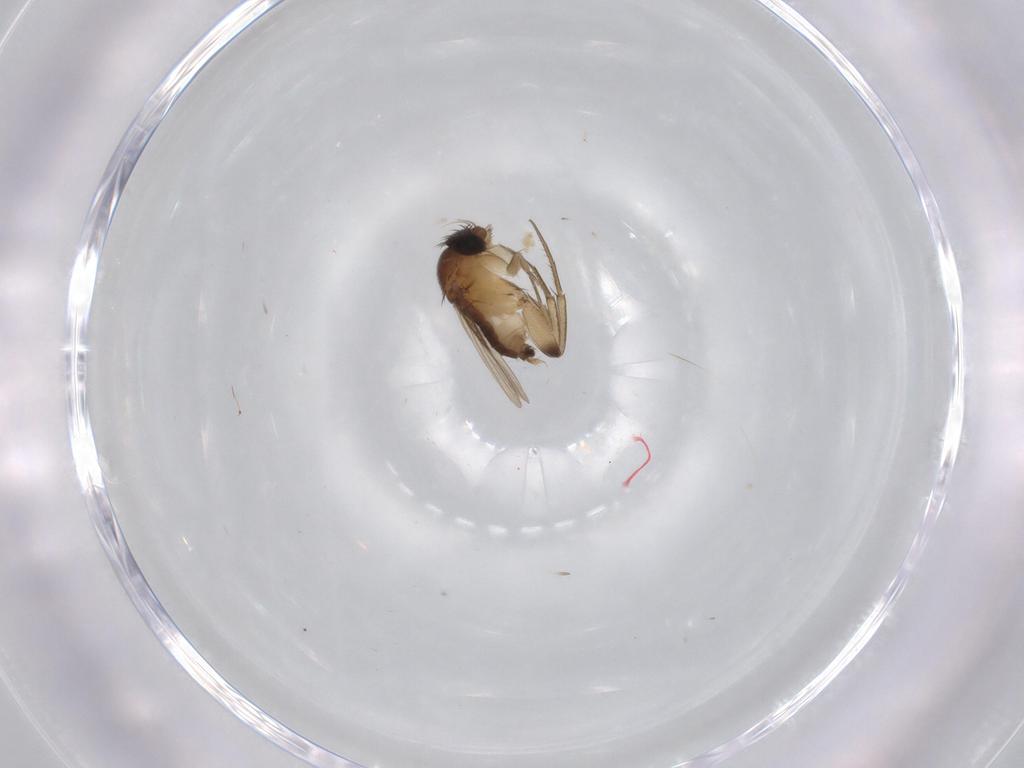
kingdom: Animalia
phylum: Arthropoda
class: Insecta
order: Diptera
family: Phoridae
